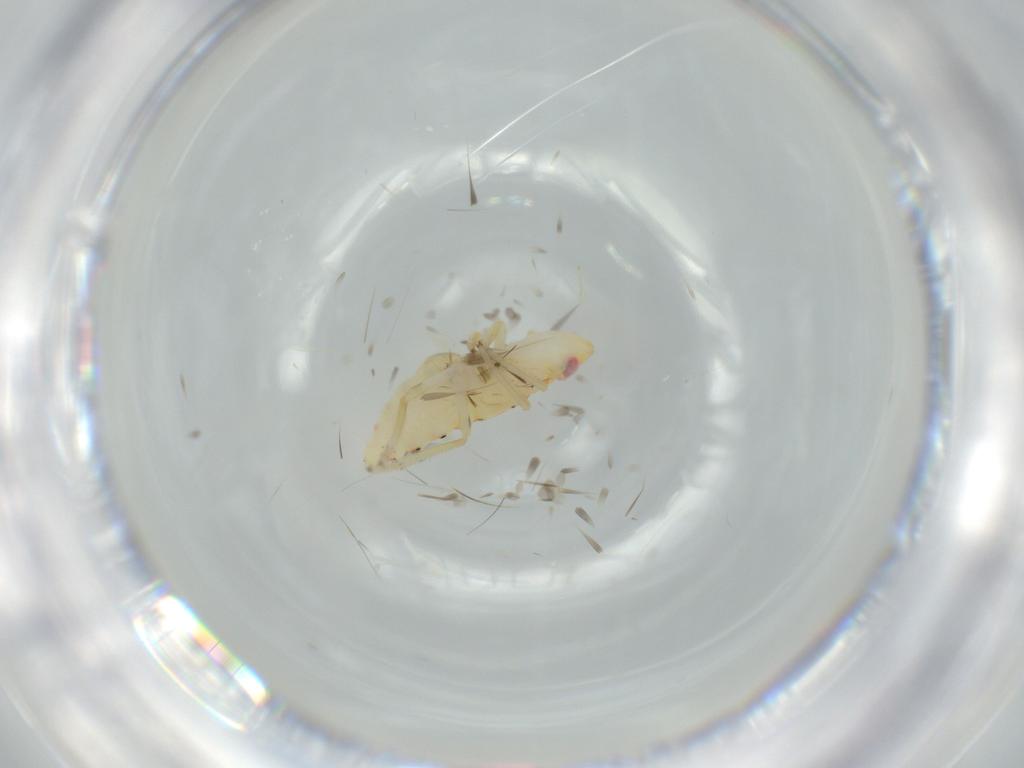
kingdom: Animalia
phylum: Arthropoda
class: Insecta
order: Hemiptera
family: Tropiduchidae
